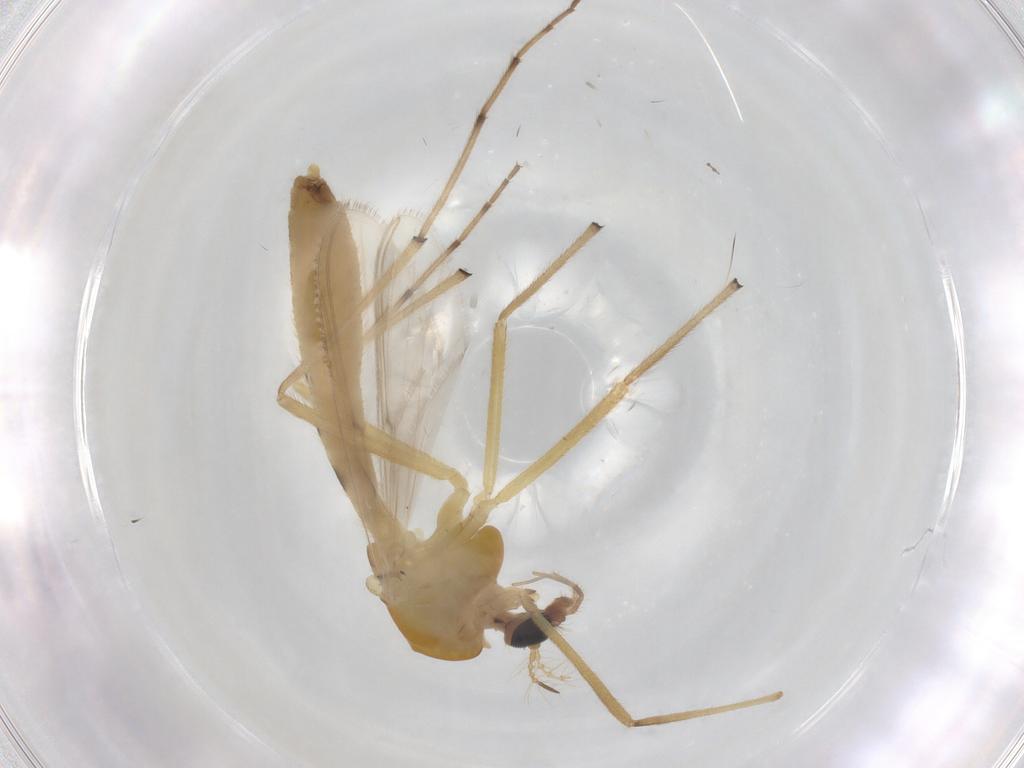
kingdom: Animalia
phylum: Arthropoda
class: Insecta
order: Diptera
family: Chironomidae
